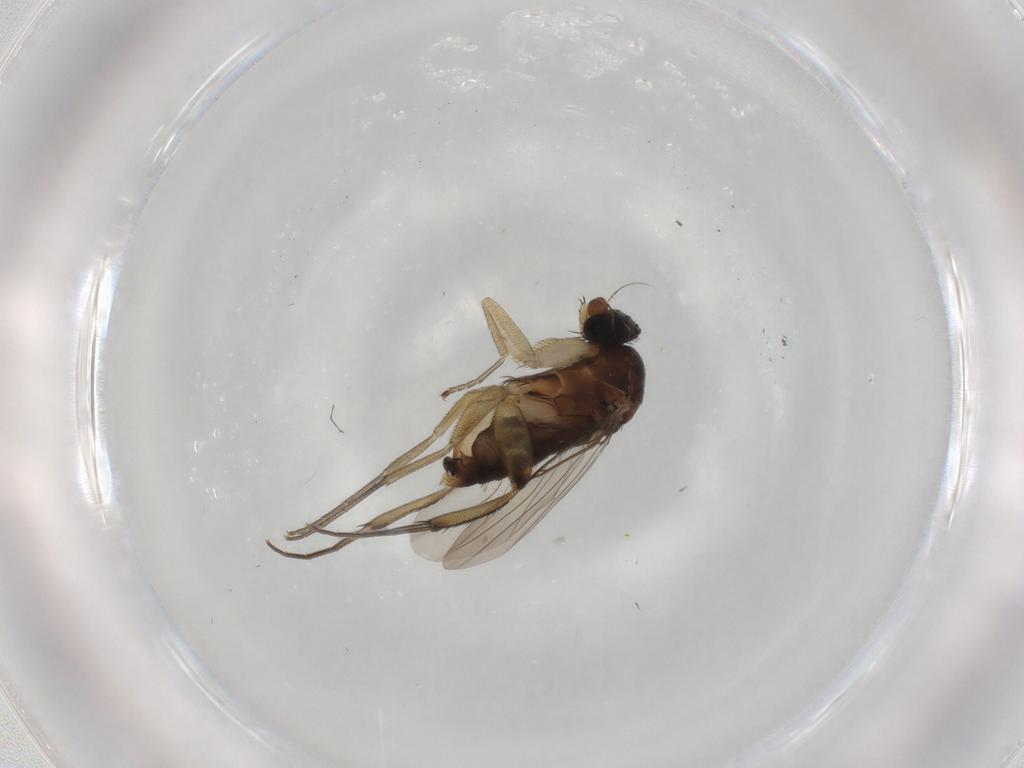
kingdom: Animalia
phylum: Arthropoda
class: Insecta
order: Diptera
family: Phoridae
